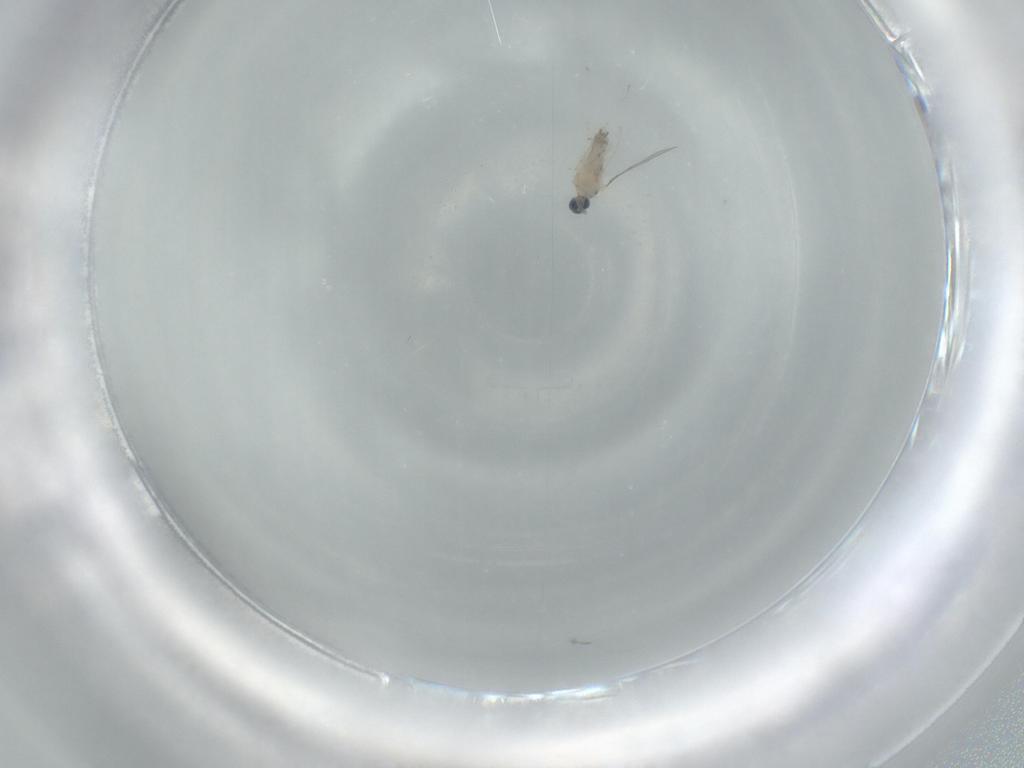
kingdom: Animalia
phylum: Arthropoda
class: Insecta
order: Diptera
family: Cecidomyiidae
